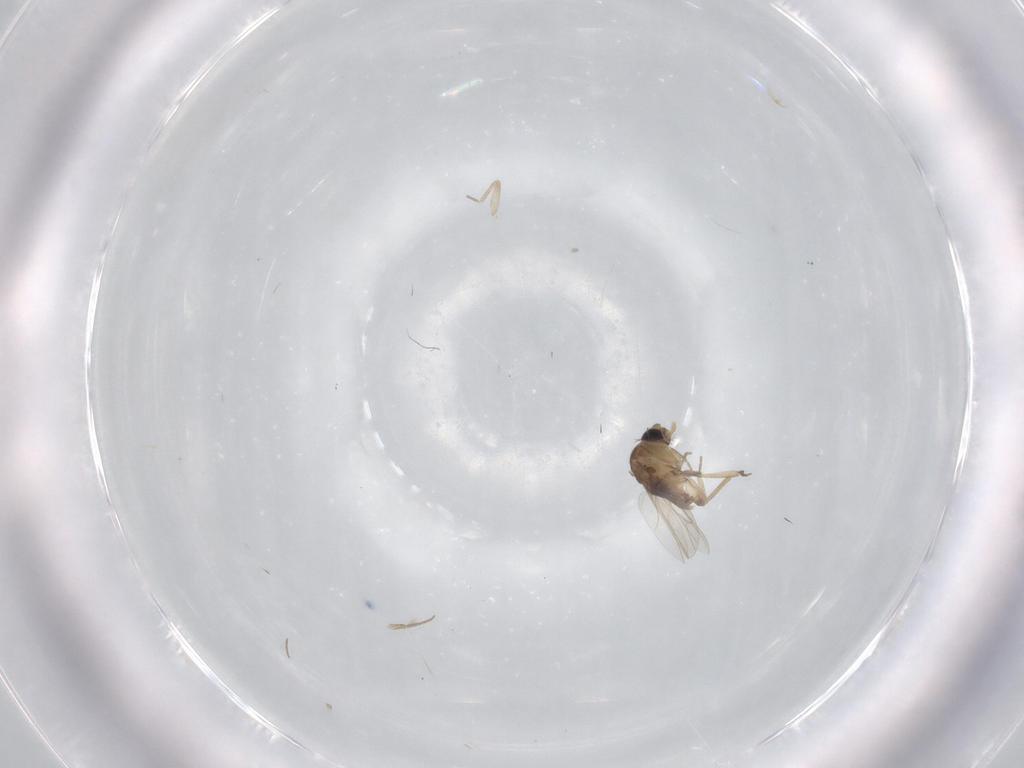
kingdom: Animalia
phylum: Arthropoda
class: Insecta
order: Diptera
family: Phoridae
